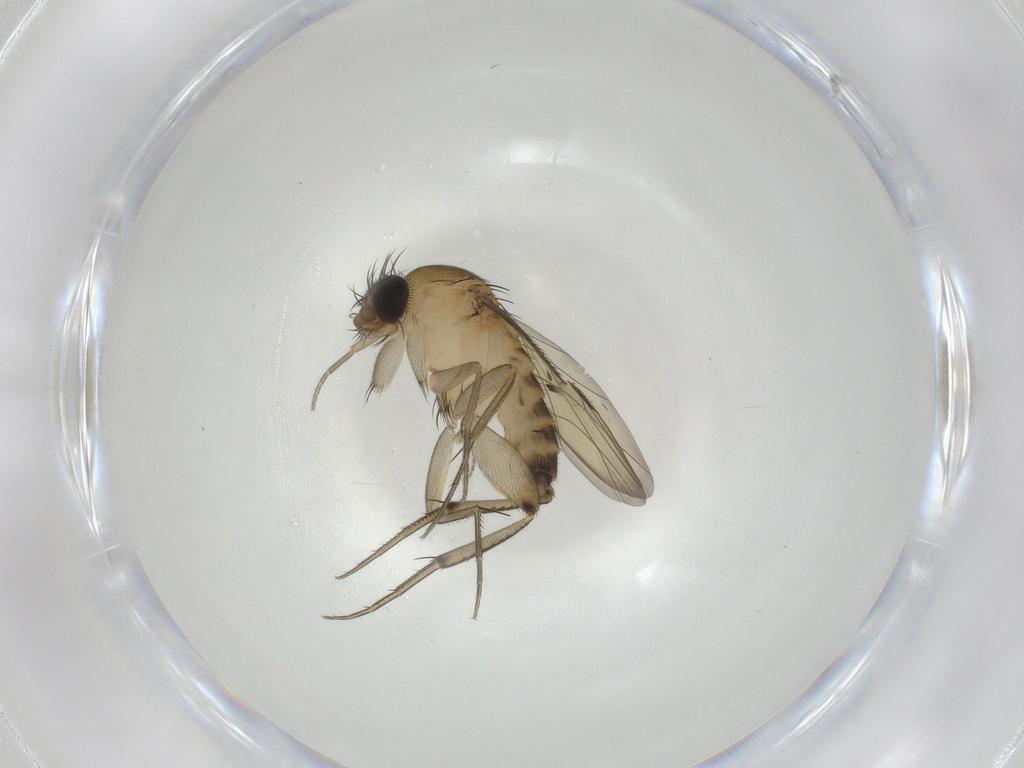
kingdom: Animalia
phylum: Arthropoda
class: Insecta
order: Diptera
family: Phoridae
